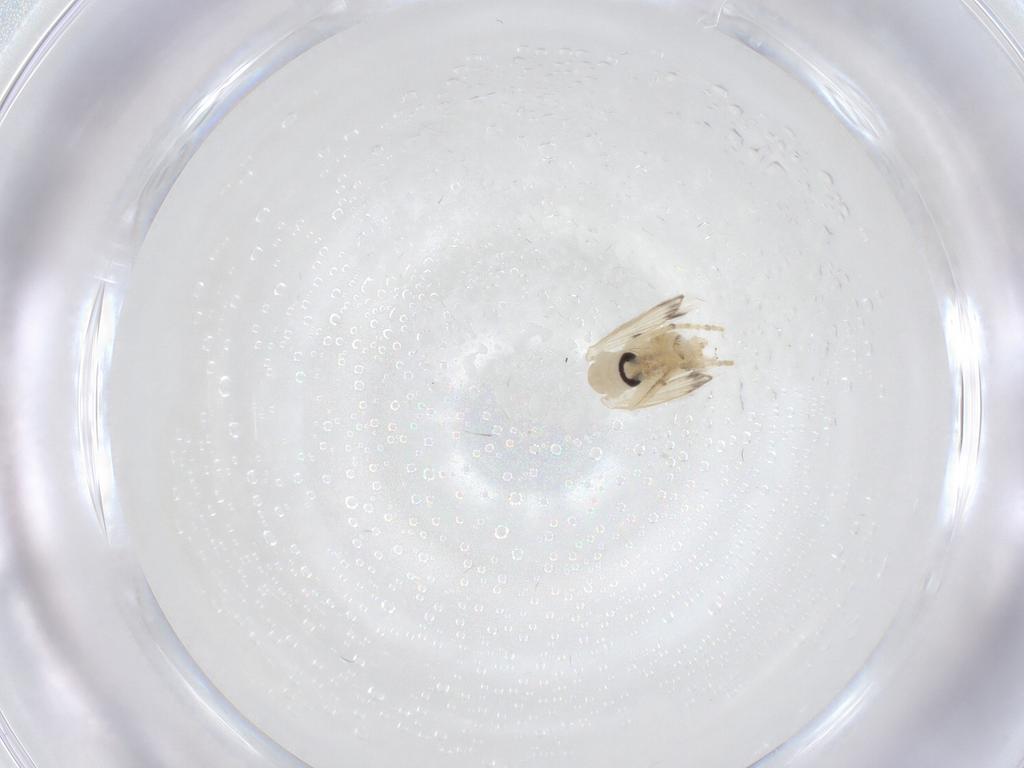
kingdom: Animalia
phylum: Arthropoda
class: Insecta
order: Diptera
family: Psychodidae
